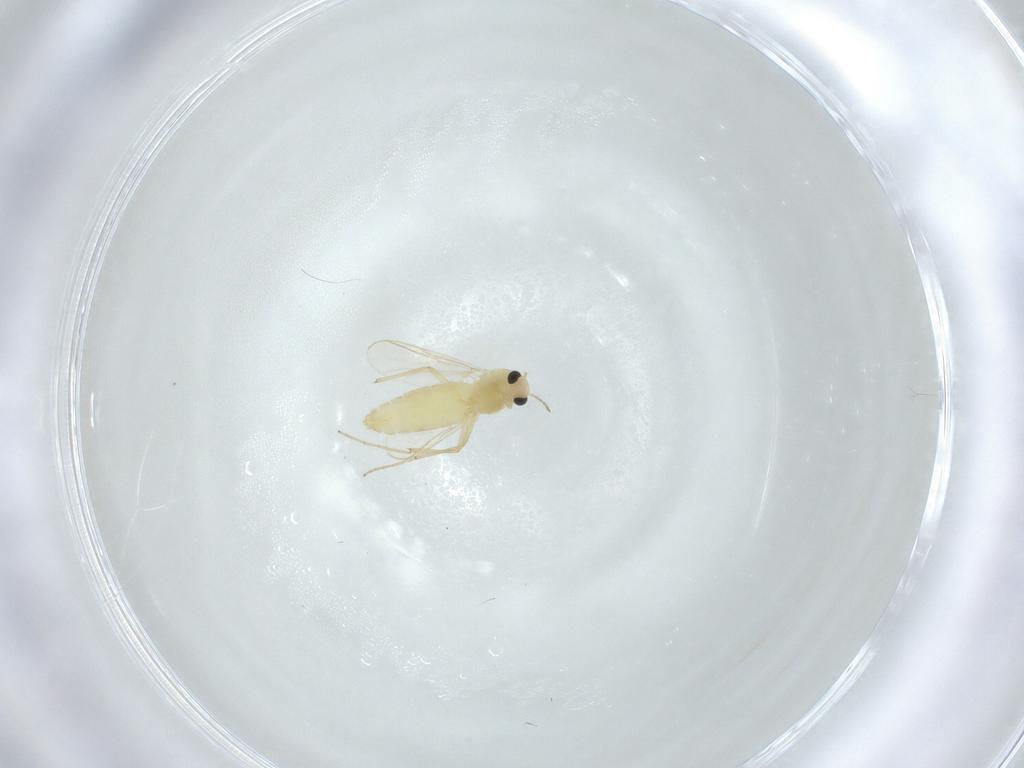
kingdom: Animalia
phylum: Arthropoda
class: Insecta
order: Diptera
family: Chironomidae
